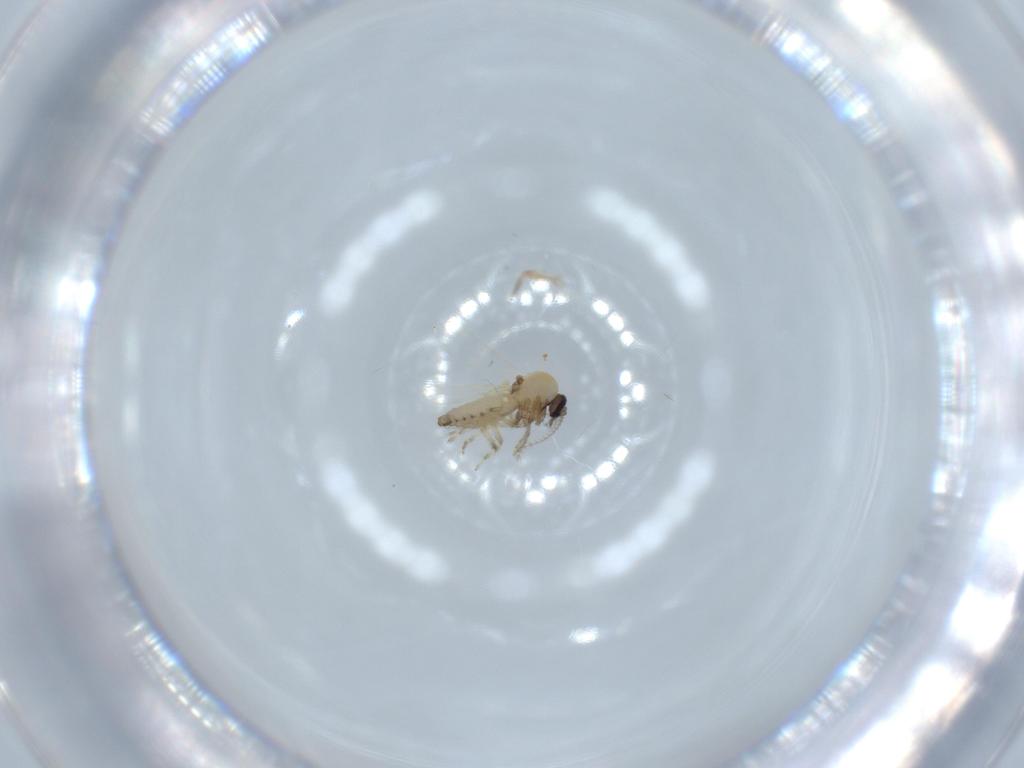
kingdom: Animalia
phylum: Arthropoda
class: Insecta
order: Diptera
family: Ceratopogonidae
